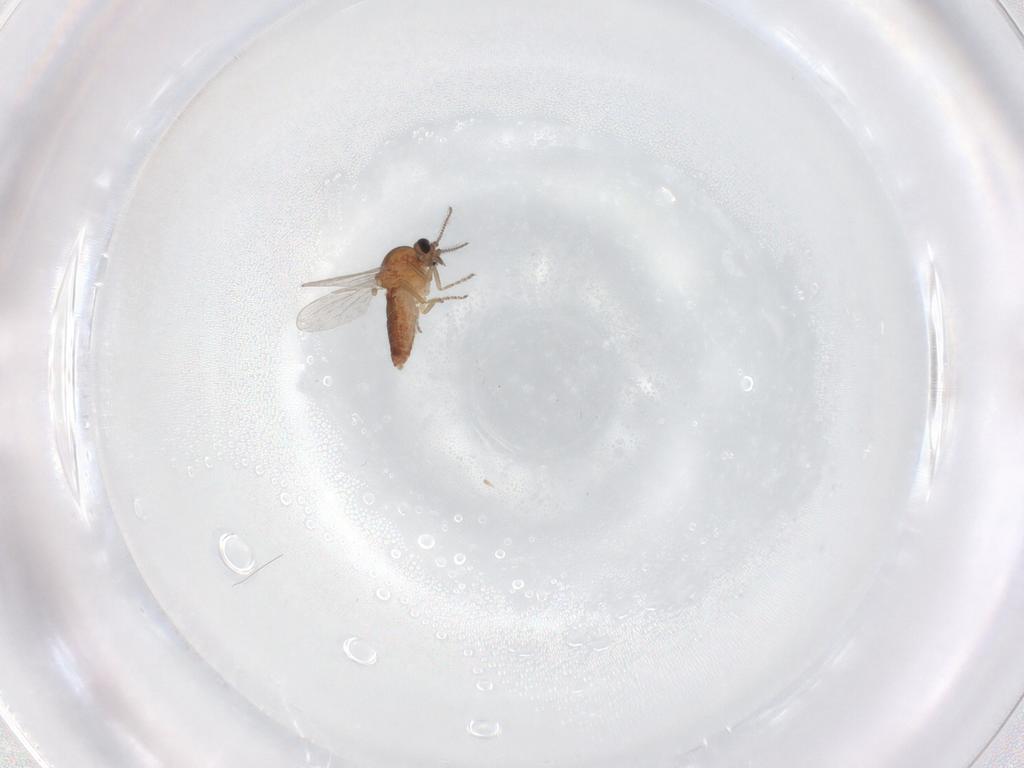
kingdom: Animalia
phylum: Arthropoda
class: Insecta
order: Diptera
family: Ceratopogonidae
